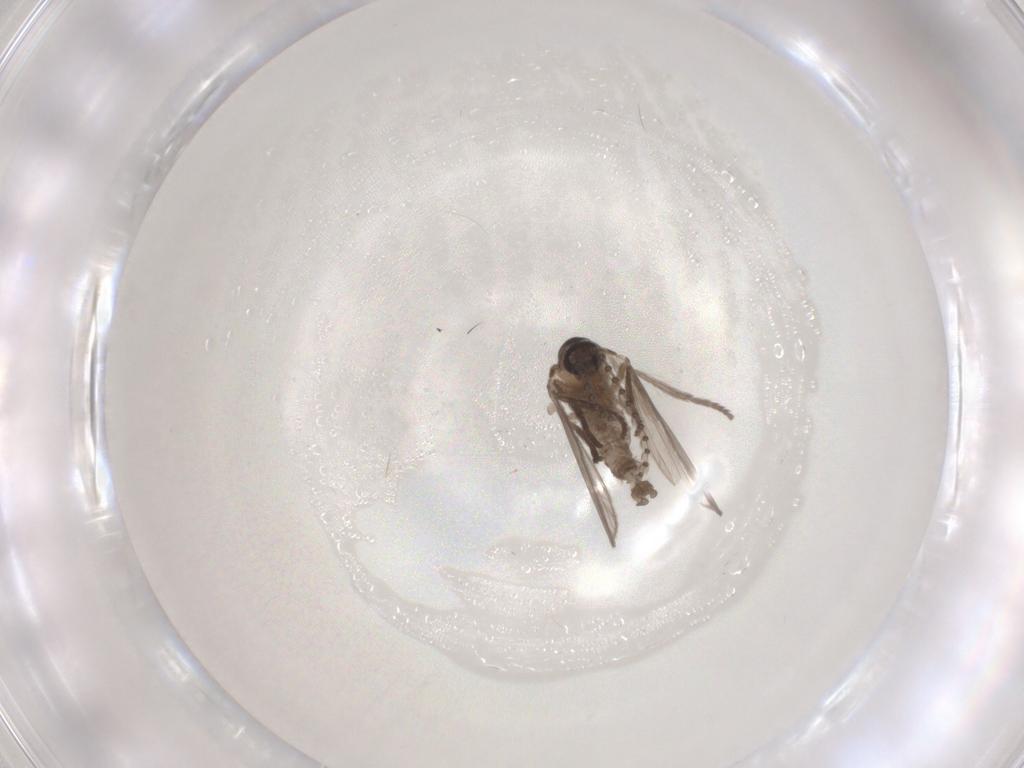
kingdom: Animalia
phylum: Arthropoda
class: Insecta
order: Diptera
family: Psychodidae
